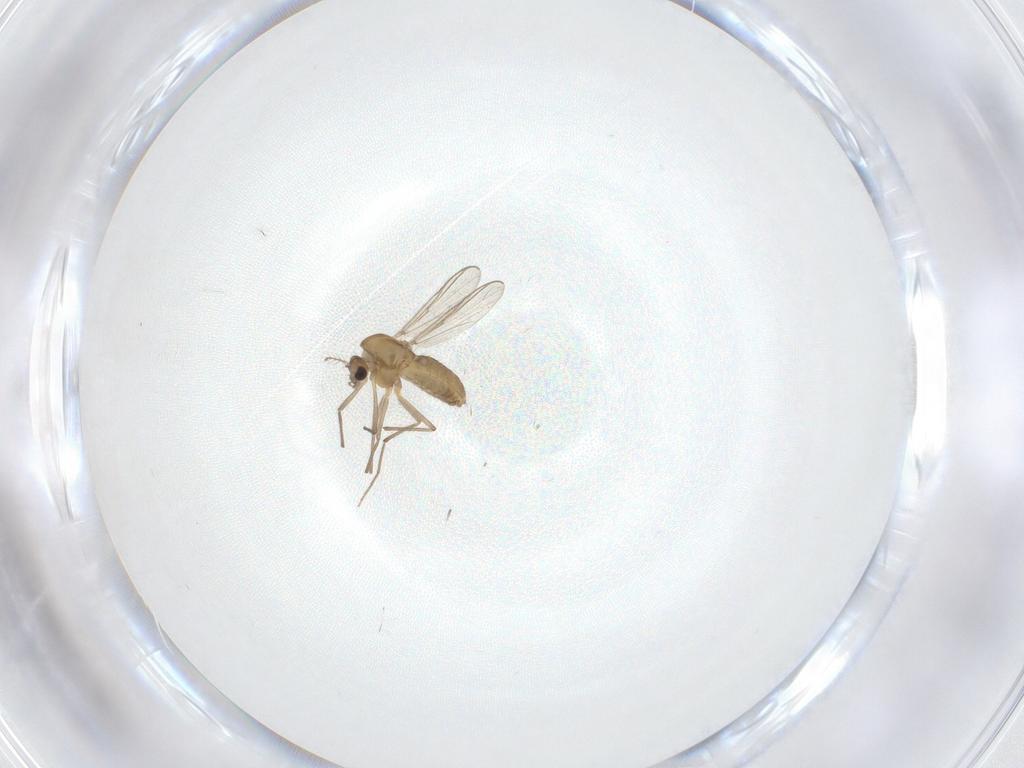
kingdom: Animalia
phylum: Arthropoda
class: Insecta
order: Diptera
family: Chironomidae
